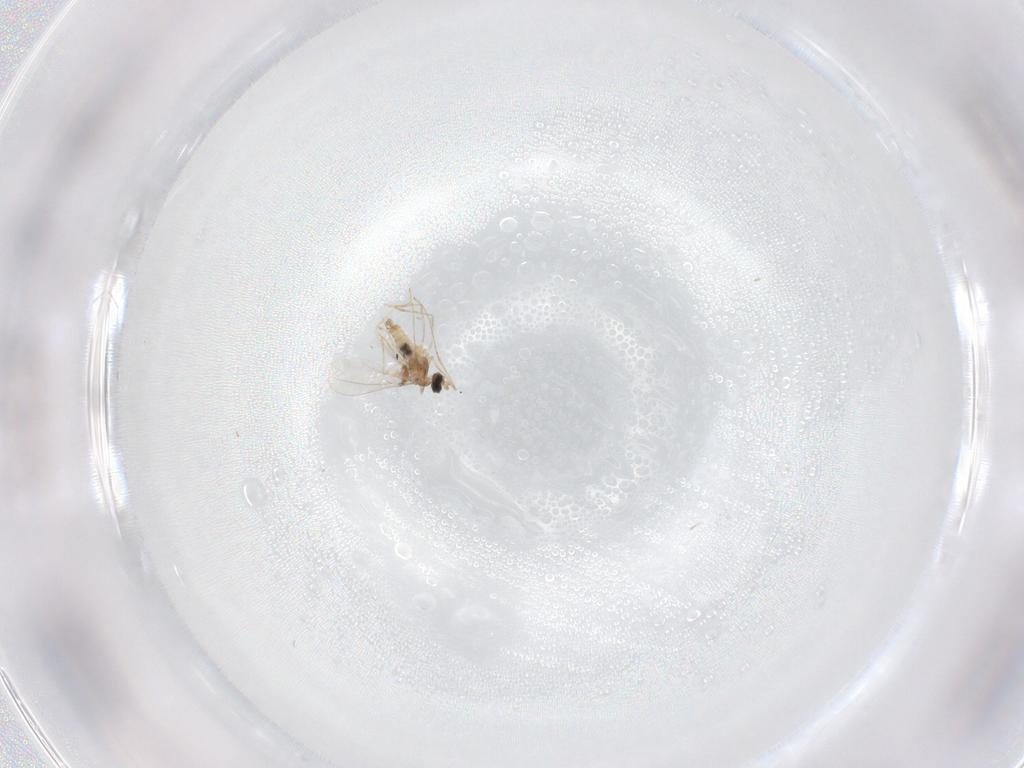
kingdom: Animalia
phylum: Arthropoda
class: Insecta
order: Diptera
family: Cecidomyiidae
